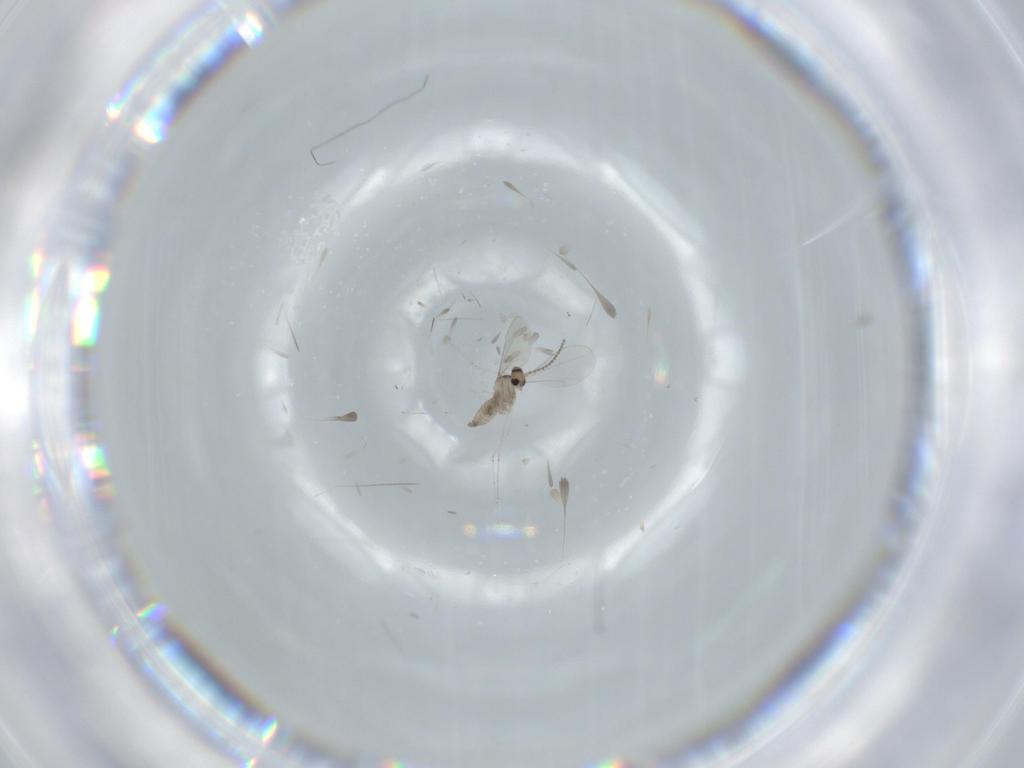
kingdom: Animalia
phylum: Arthropoda
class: Insecta
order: Diptera
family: Cecidomyiidae
